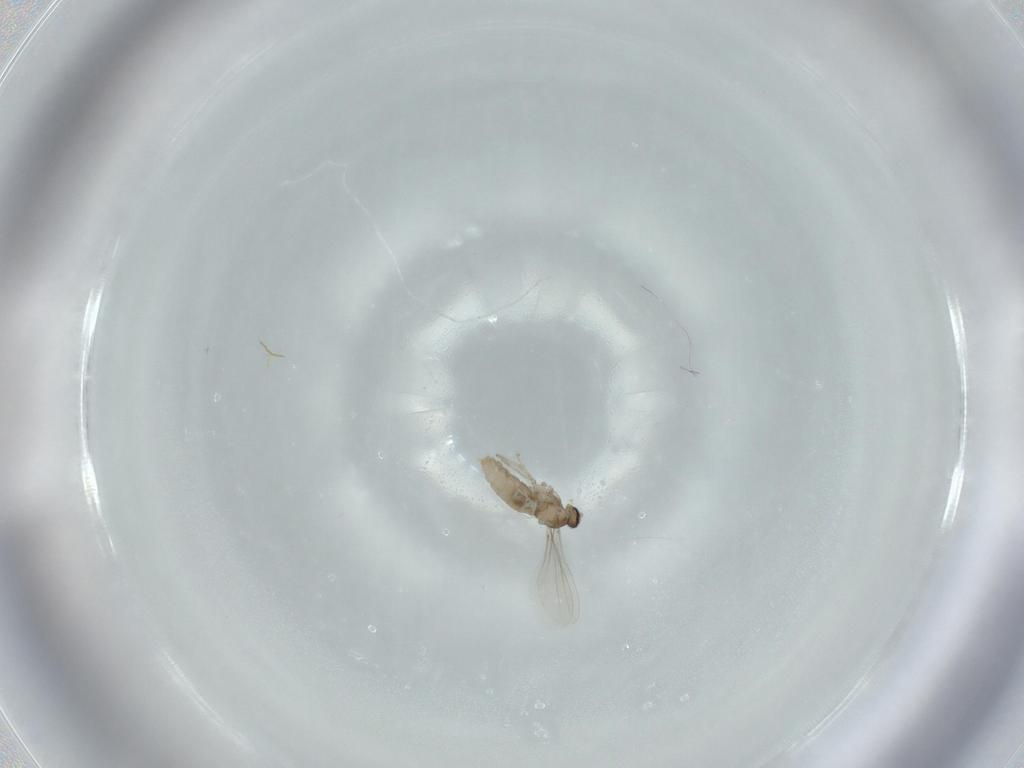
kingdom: Animalia
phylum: Arthropoda
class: Insecta
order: Diptera
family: Cecidomyiidae
